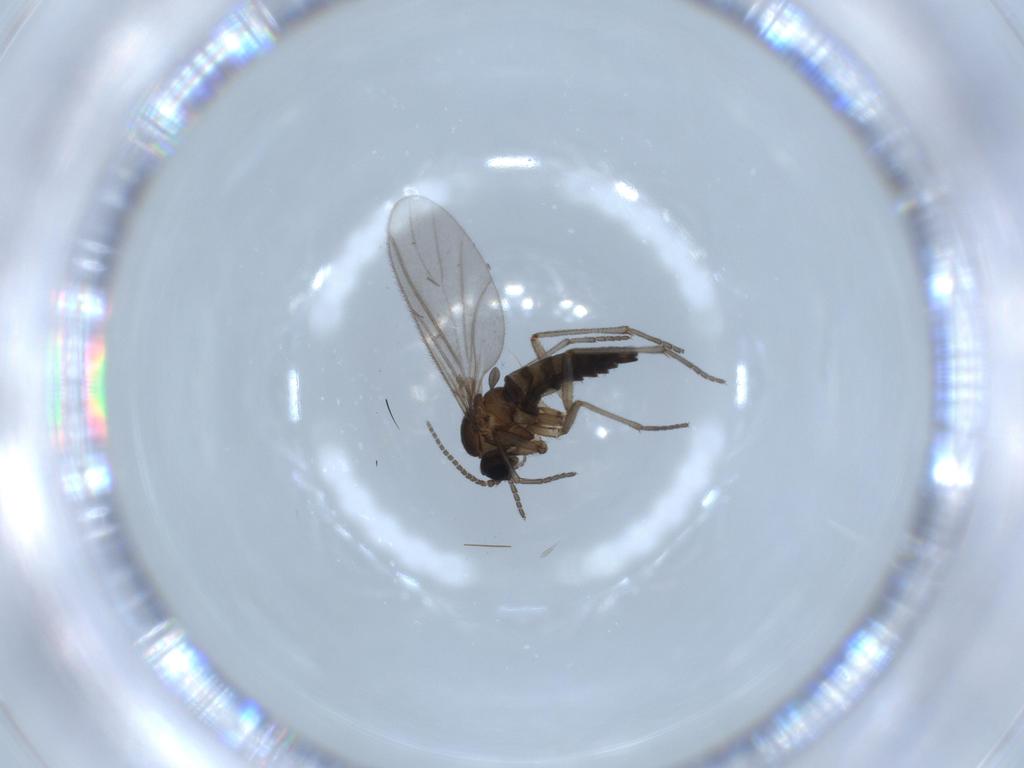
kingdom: Animalia
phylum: Arthropoda
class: Insecta
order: Diptera
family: Sciaridae
